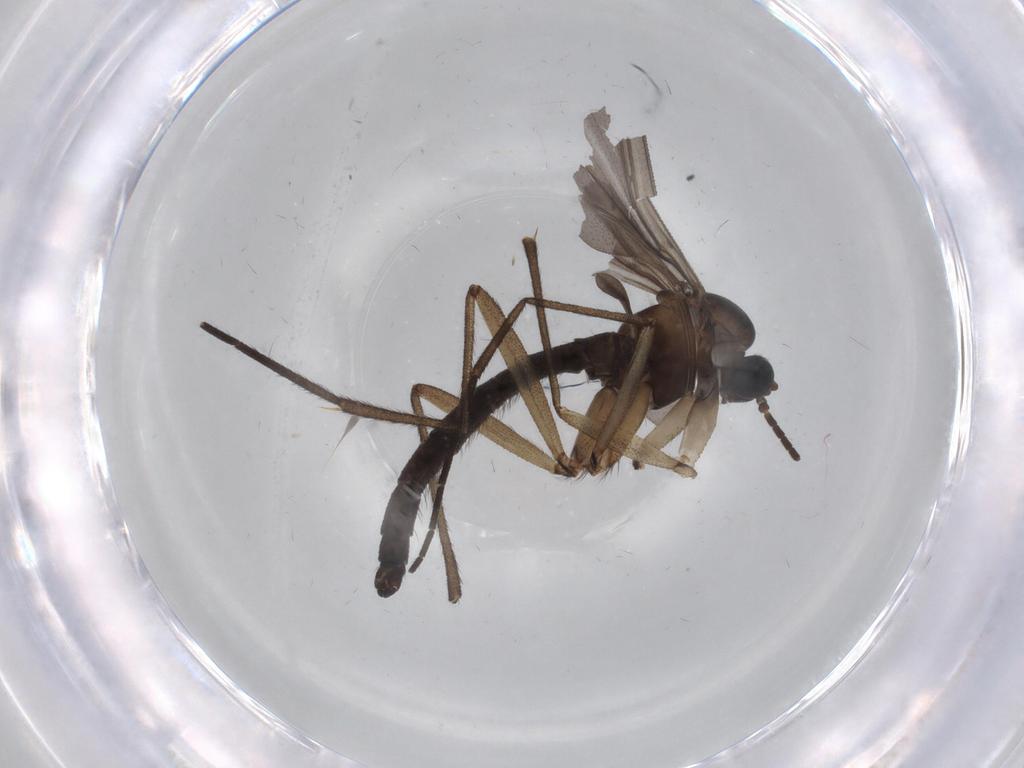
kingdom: Animalia
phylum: Arthropoda
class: Insecta
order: Diptera
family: Sciaridae
